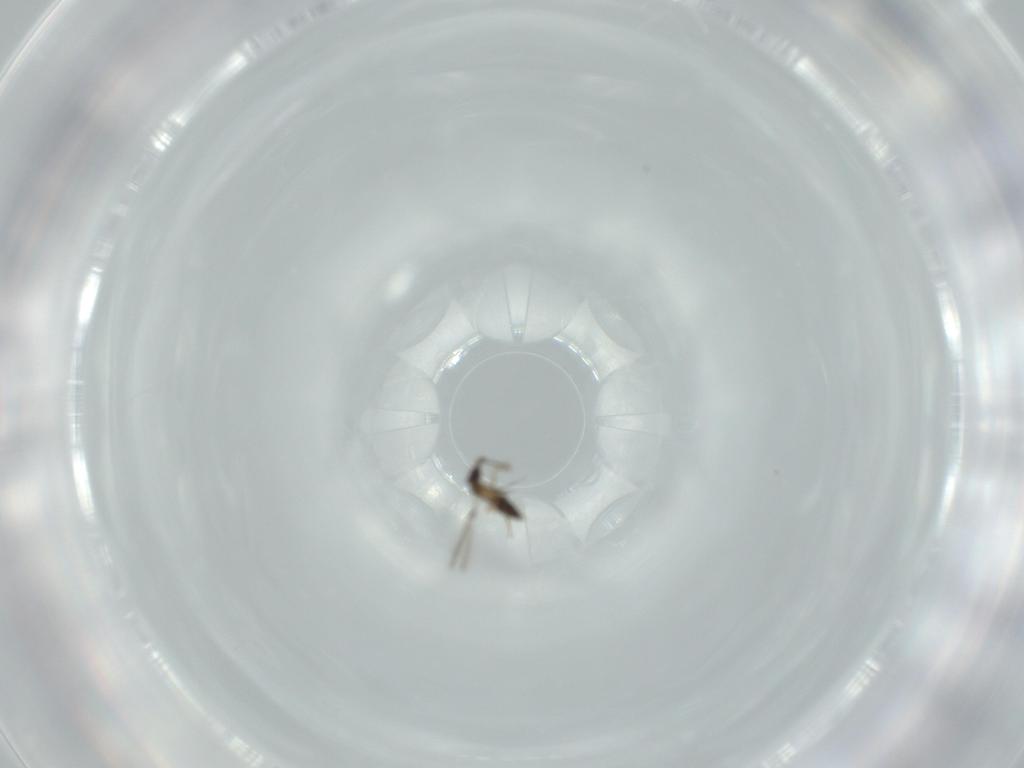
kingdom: Animalia
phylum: Arthropoda
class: Insecta
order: Hymenoptera
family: Mymaridae
